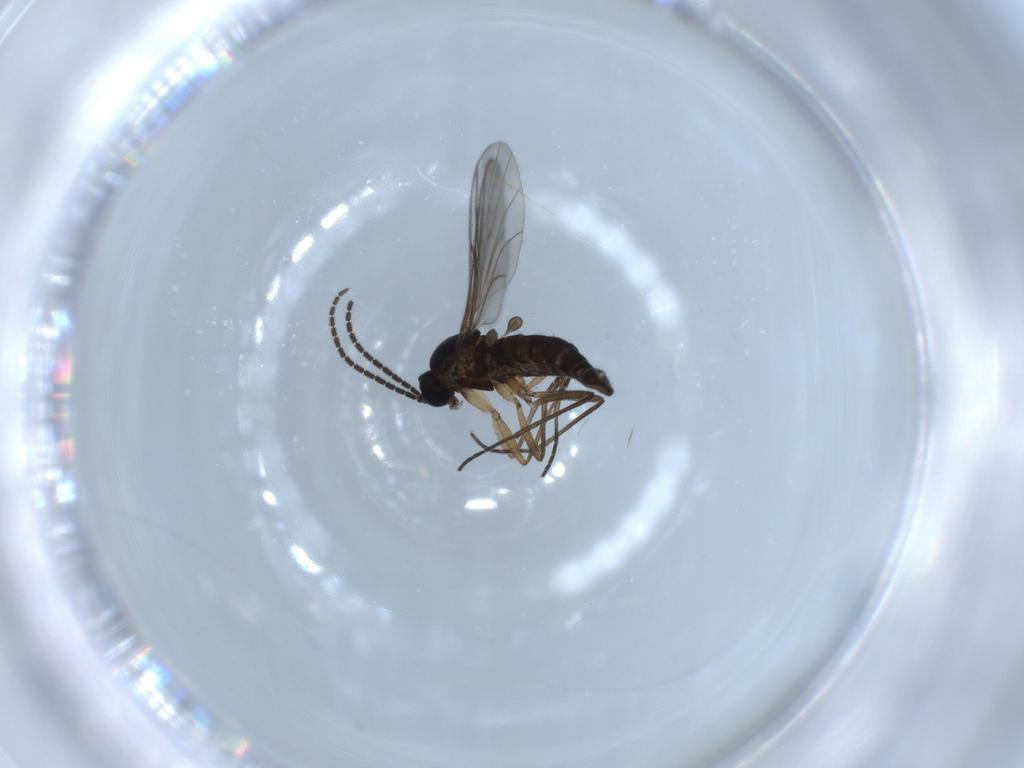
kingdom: Animalia
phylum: Arthropoda
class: Insecta
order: Diptera
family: Sciaridae
